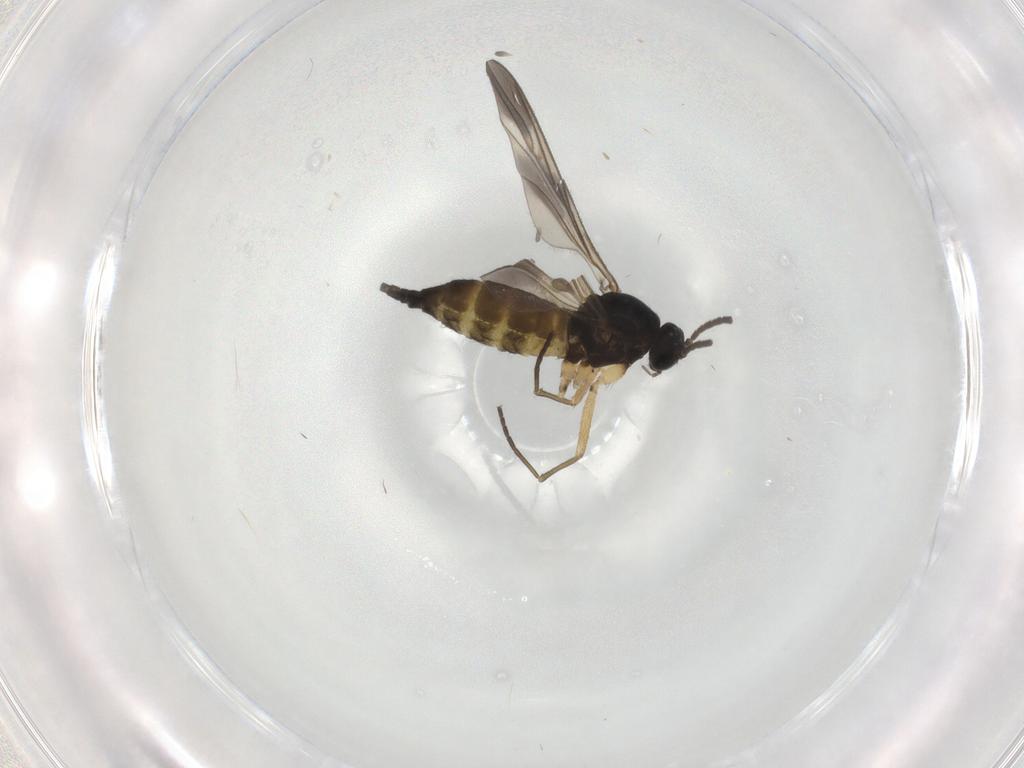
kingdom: Animalia
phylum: Arthropoda
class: Insecta
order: Diptera
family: Sciaridae
